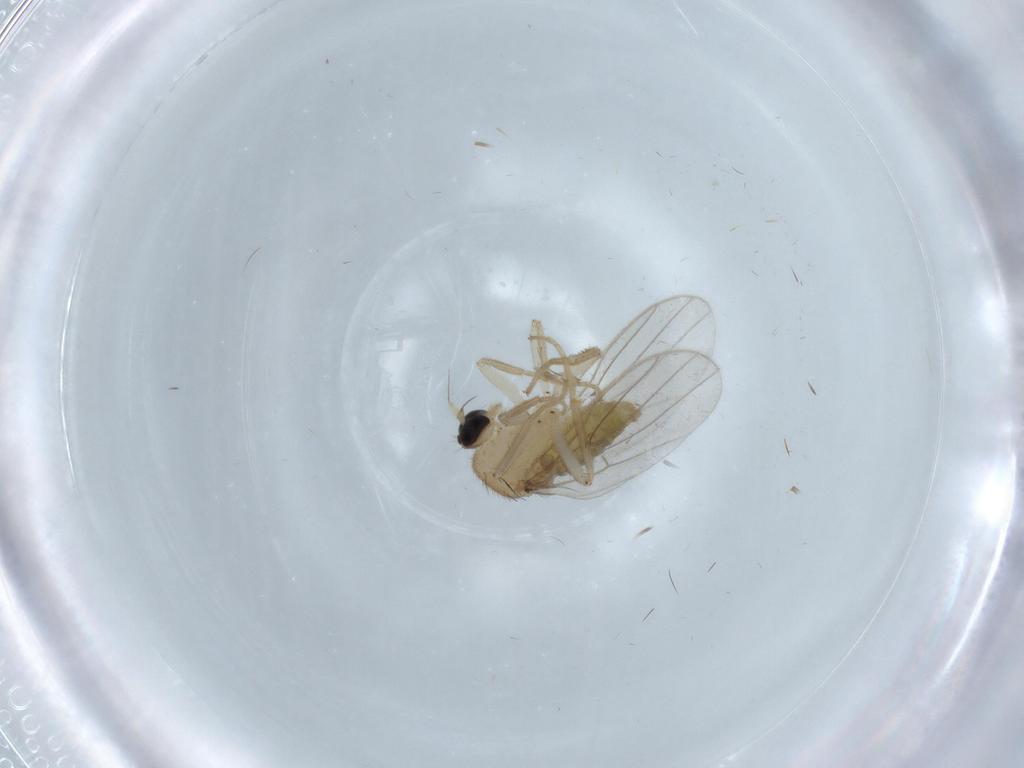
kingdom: Animalia
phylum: Arthropoda
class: Insecta
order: Diptera
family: Hybotidae
